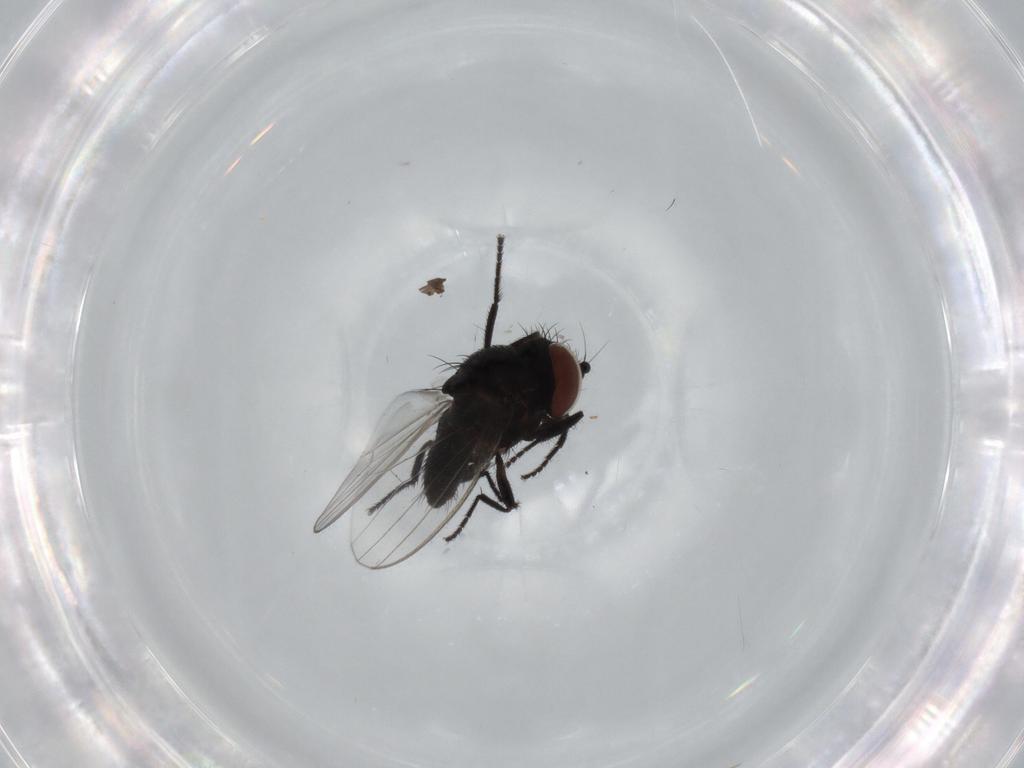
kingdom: Animalia
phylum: Arthropoda
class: Insecta
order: Diptera
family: Milichiidae
